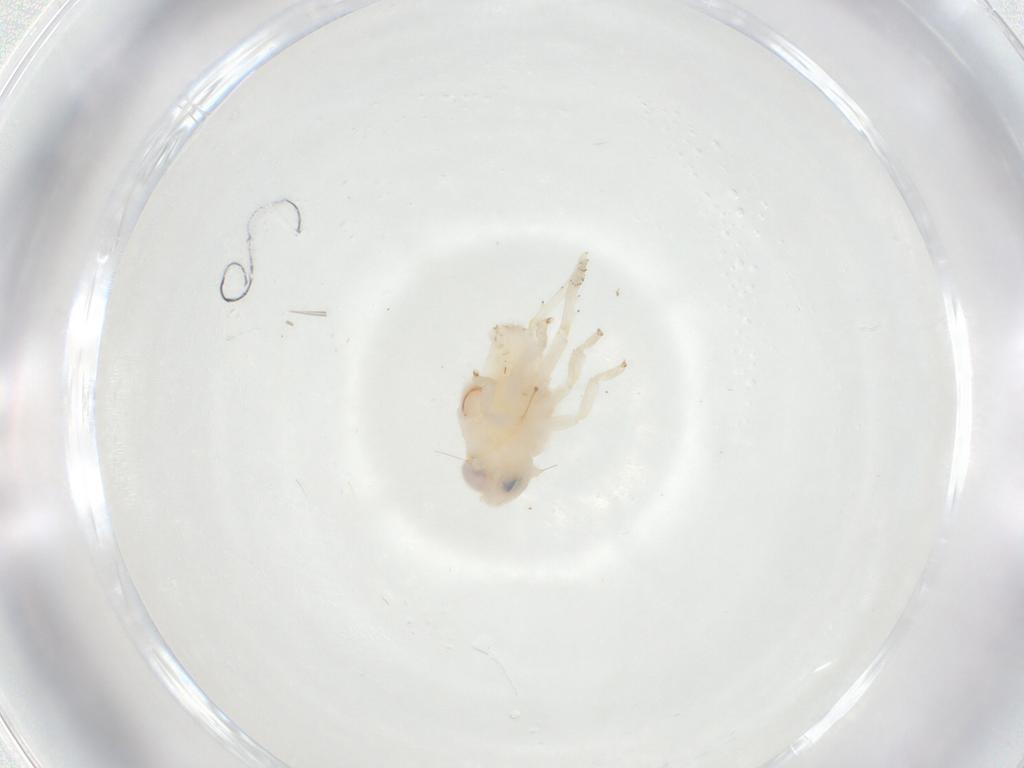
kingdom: Animalia
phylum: Arthropoda
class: Insecta
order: Hemiptera
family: Nogodinidae
